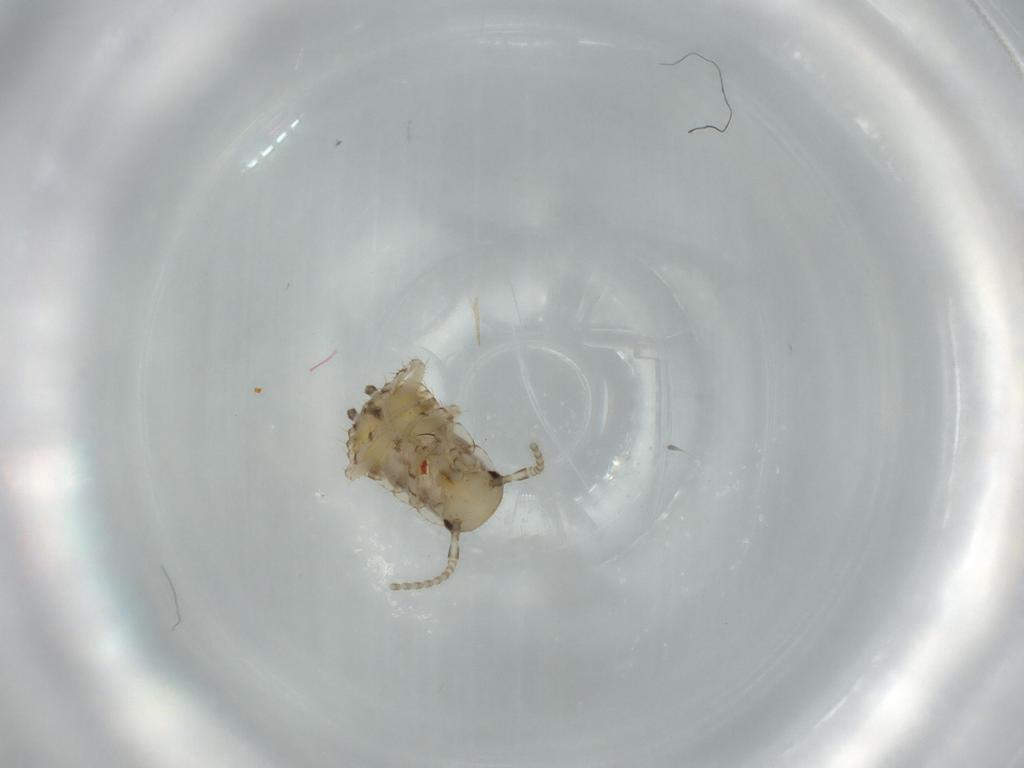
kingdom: Animalia
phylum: Arthropoda
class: Insecta
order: Blattodea
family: Ectobiidae
